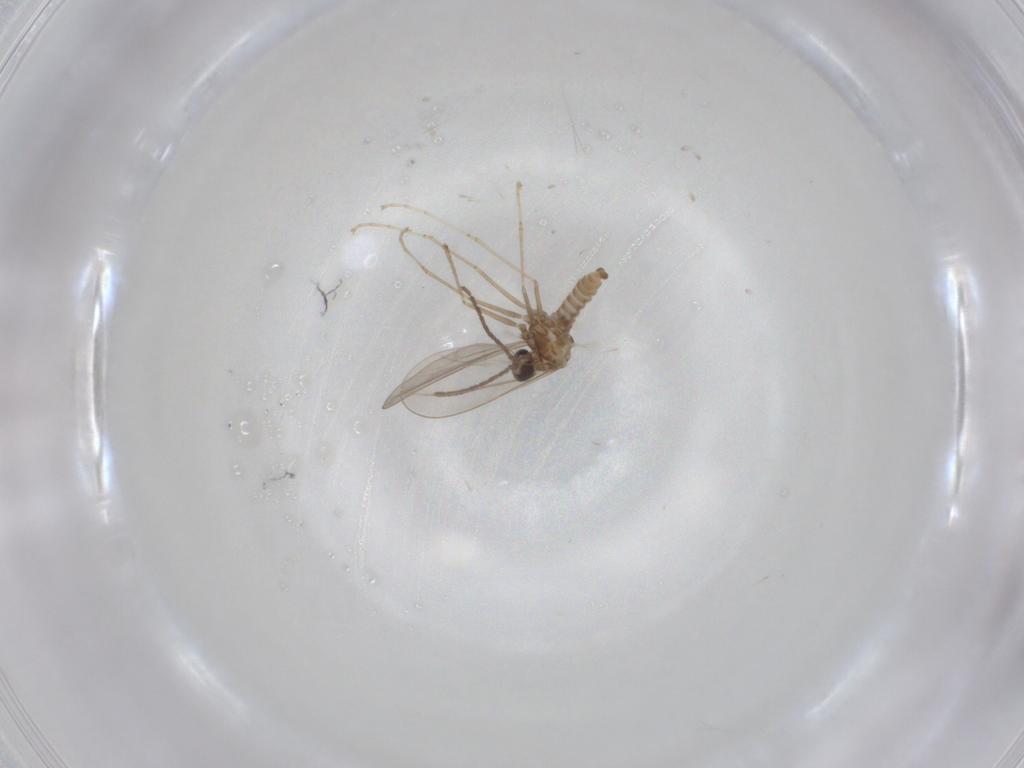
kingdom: Animalia
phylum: Arthropoda
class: Insecta
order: Diptera
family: Cecidomyiidae
